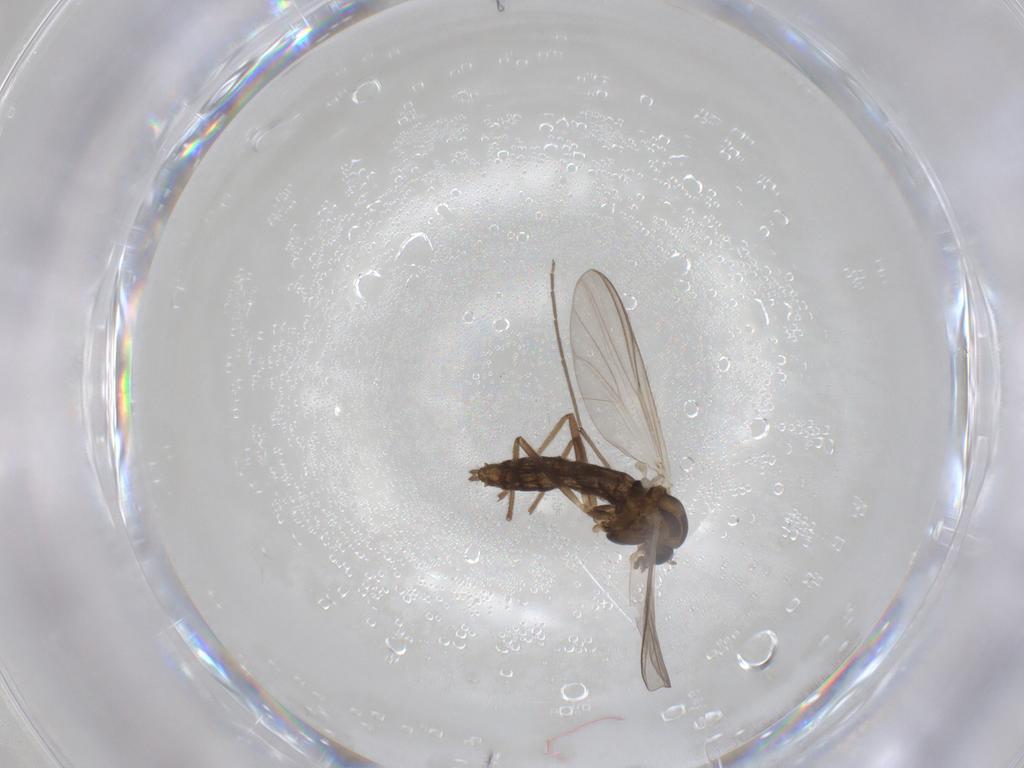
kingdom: Animalia
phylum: Arthropoda
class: Insecta
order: Diptera
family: Chironomidae
